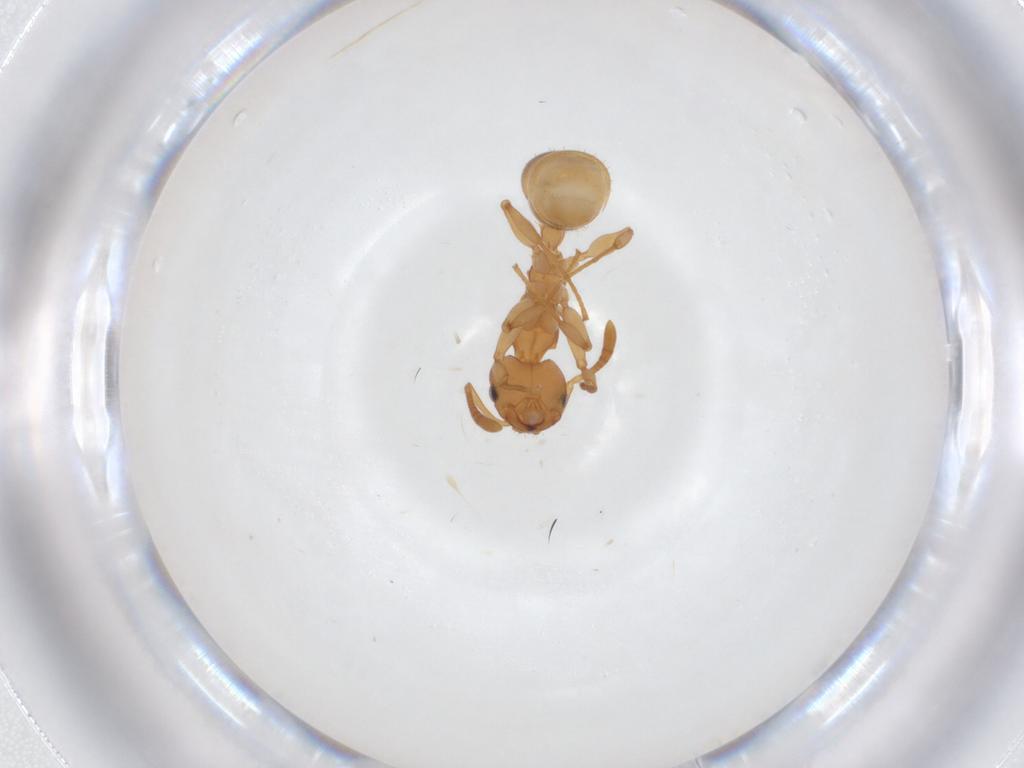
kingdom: Animalia
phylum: Arthropoda
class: Insecta
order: Hymenoptera
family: Formicidae
